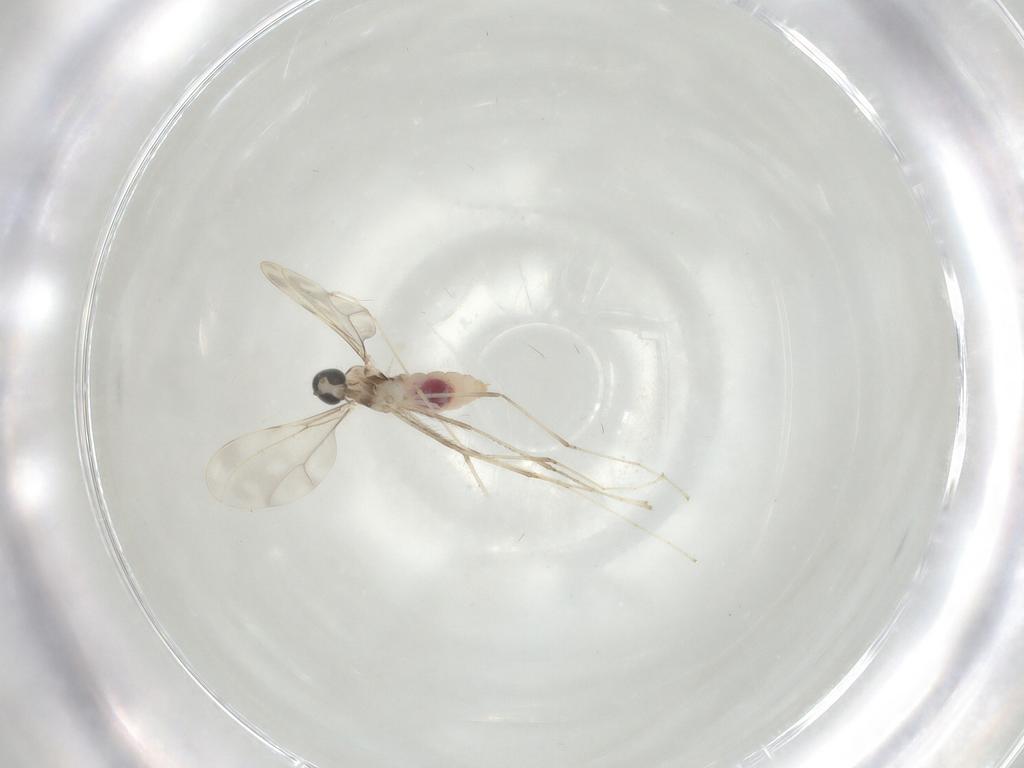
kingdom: Animalia
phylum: Arthropoda
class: Insecta
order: Diptera
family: Cecidomyiidae
